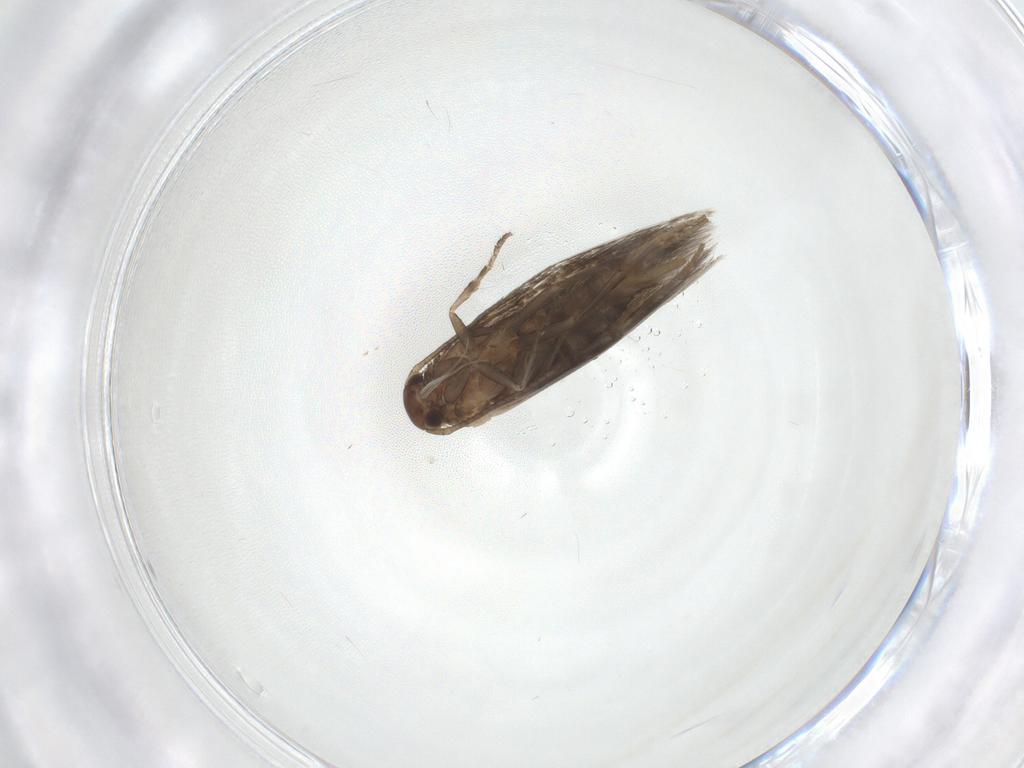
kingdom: Animalia
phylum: Arthropoda
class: Insecta
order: Lepidoptera
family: Elachistidae
